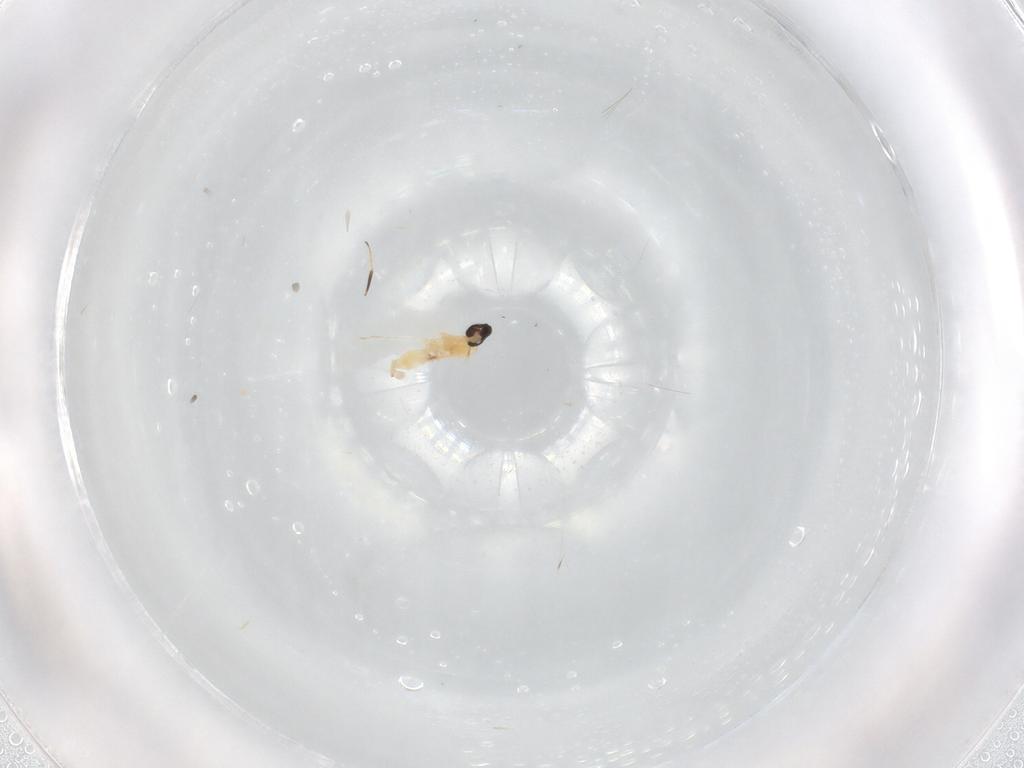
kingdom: Animalia
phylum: Arthropoda
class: Insecta
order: Diptera
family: Cecidomyiidae
